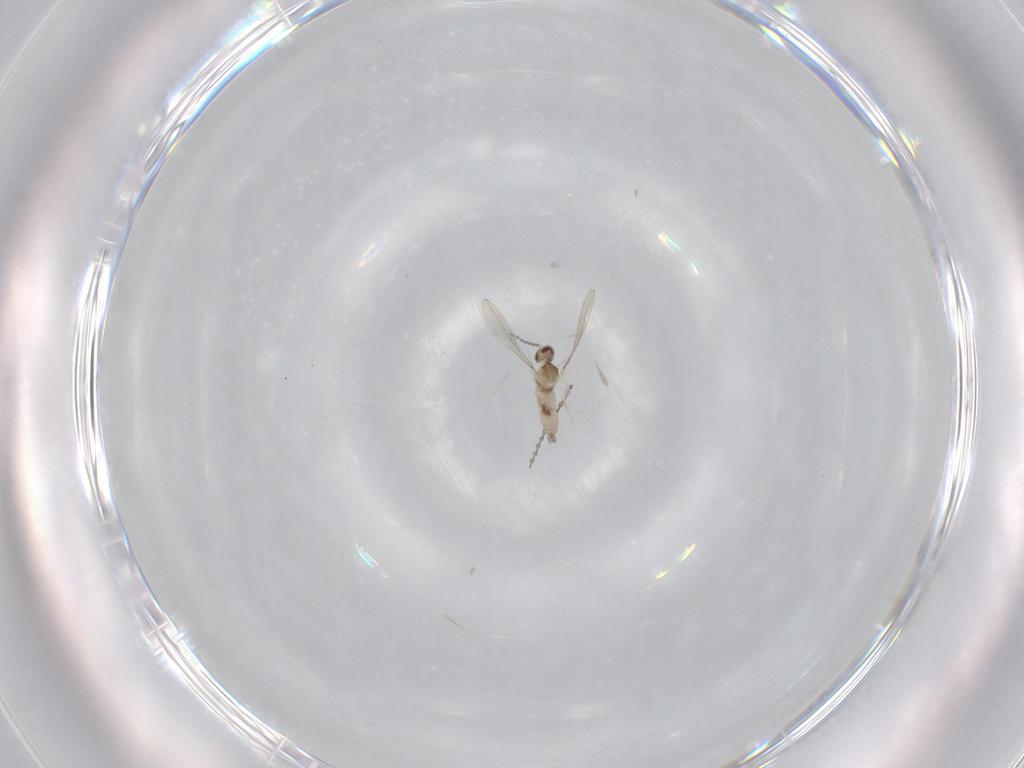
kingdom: Animalia
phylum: Arthropoda
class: Insecta
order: Diptera
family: Cecidomyiidae
